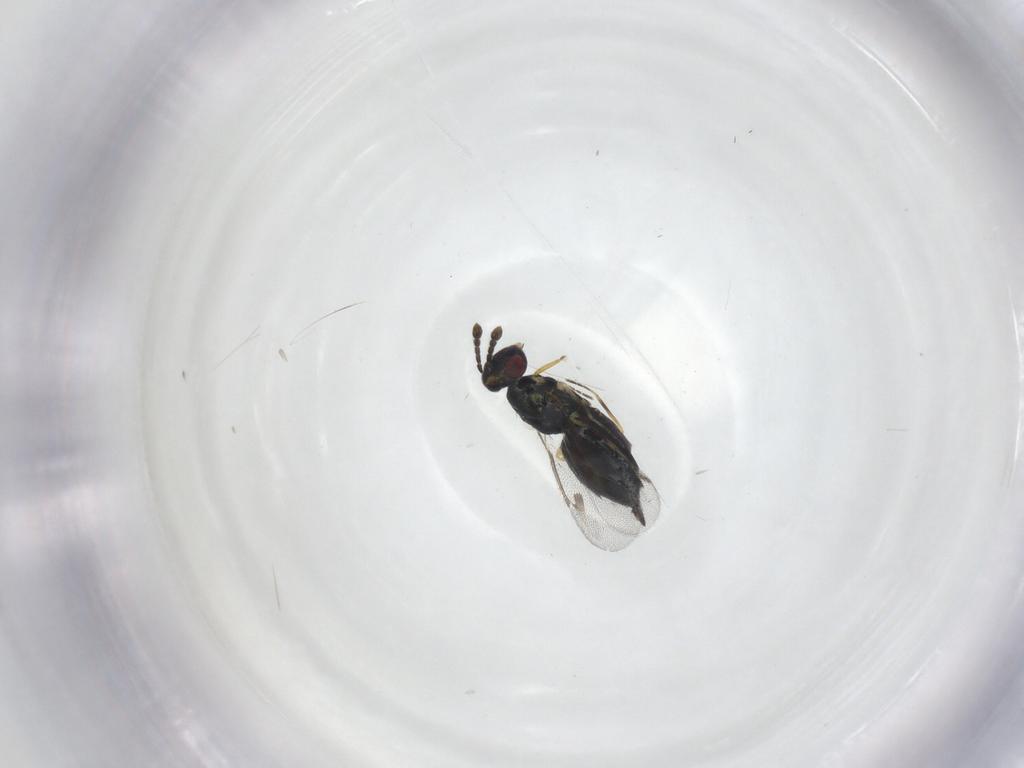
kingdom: Animalia
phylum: Arthropoda
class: Insecta
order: Hymenoptera
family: Eulophidae
